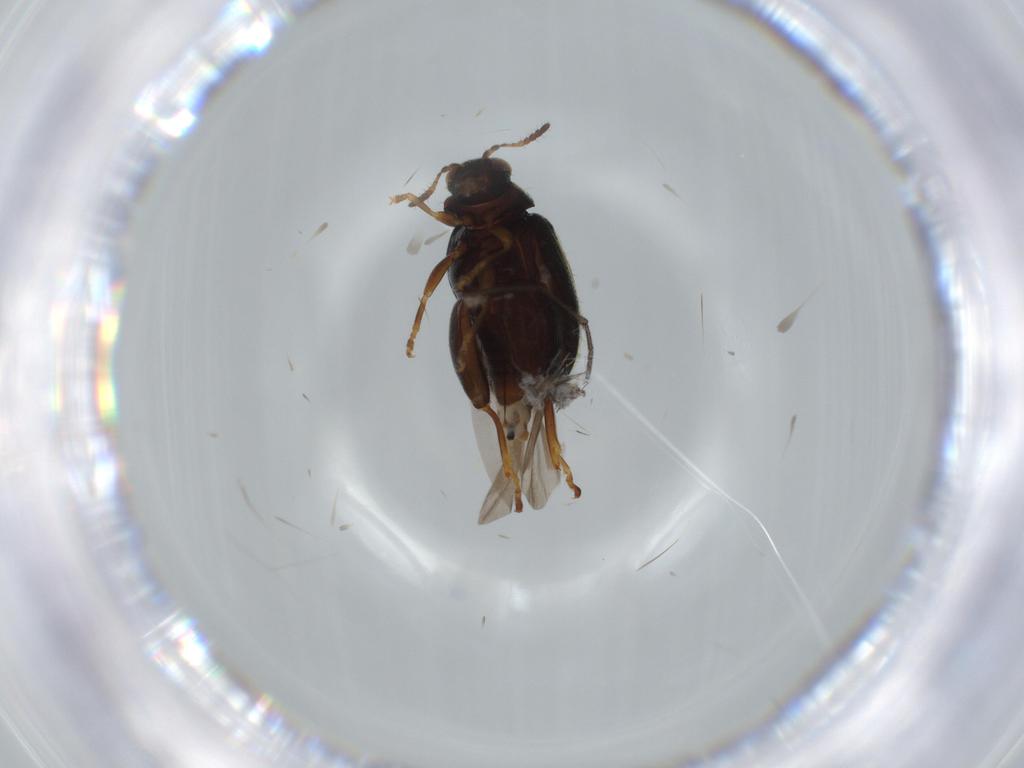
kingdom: Animalia
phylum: Arthropoda
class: Insecta
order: Coleoptera
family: Chrysomelidae
